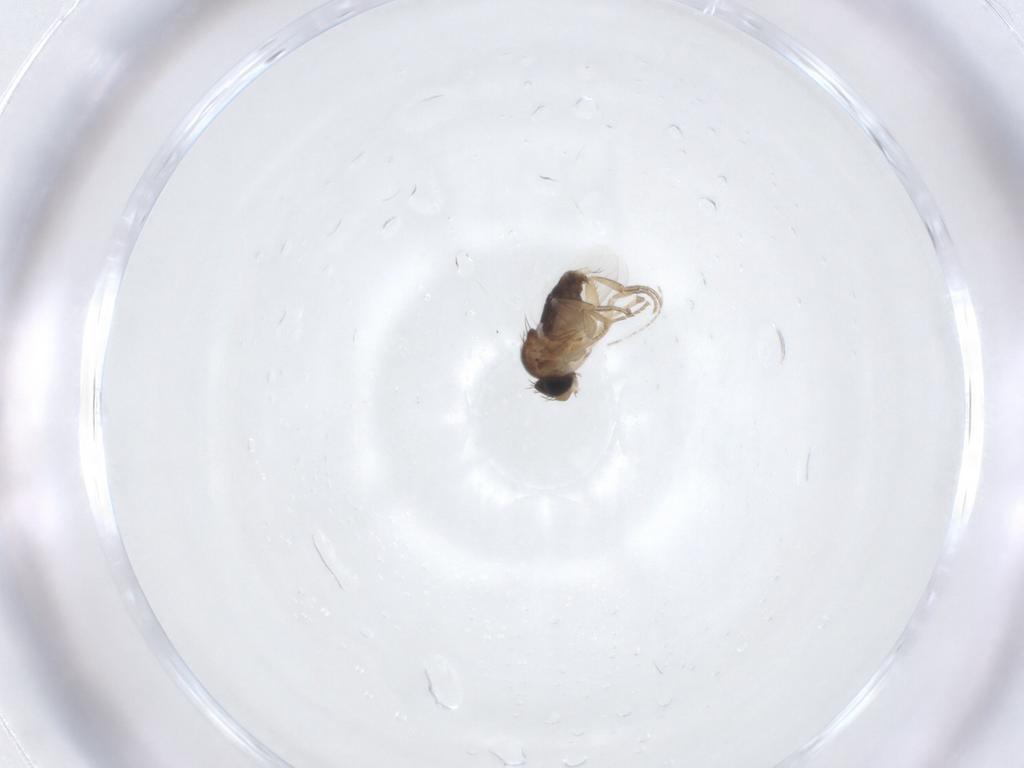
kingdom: Animalia
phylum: Arthropoda
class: Insecta
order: Diptera
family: Phoridae
